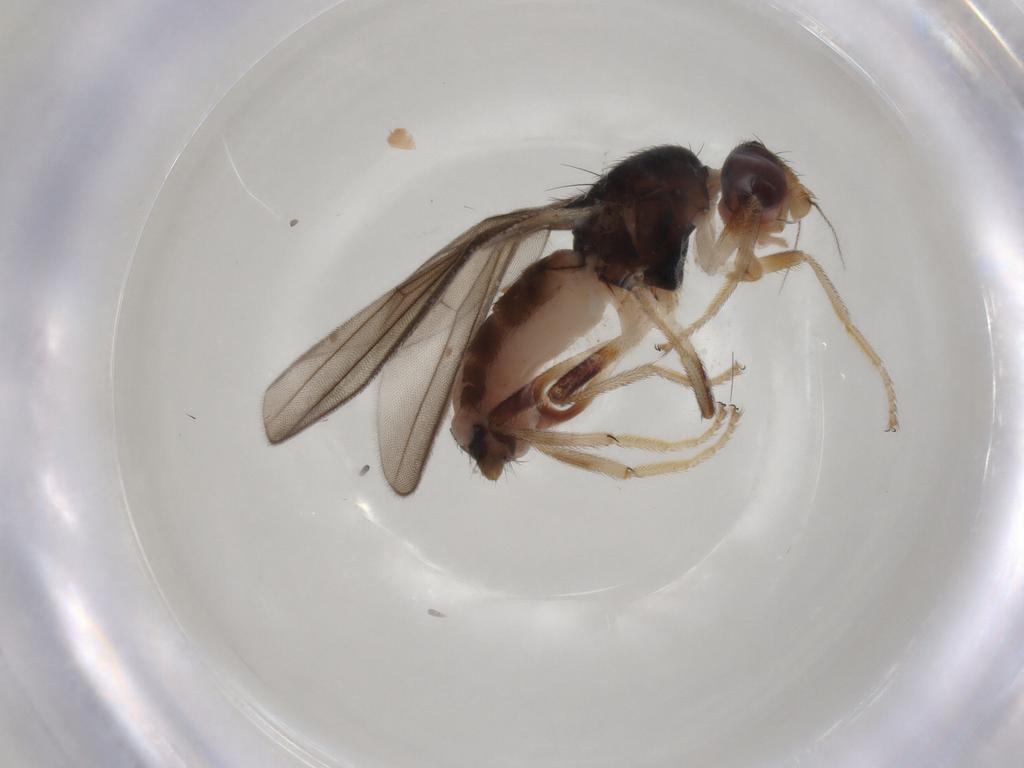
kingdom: Animalia
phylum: Arthropoda
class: Insecta
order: Diptera
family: Chloropidae
